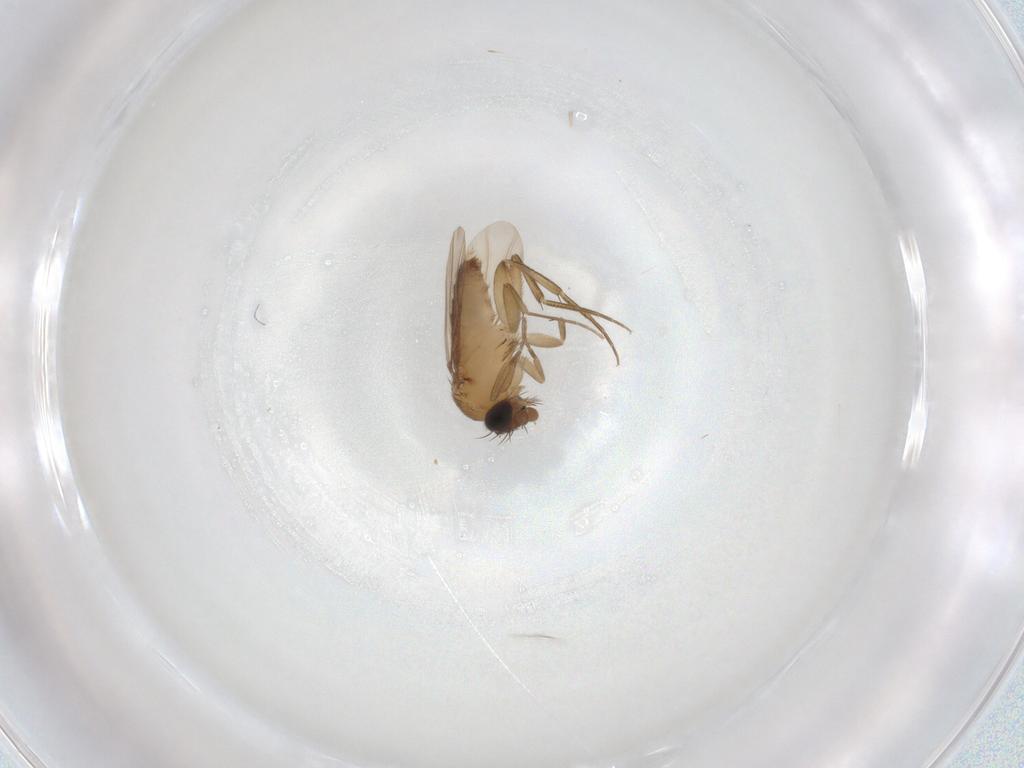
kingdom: Animalia
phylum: Arthropoda
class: Insecta
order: Diptera
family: Phoridae
